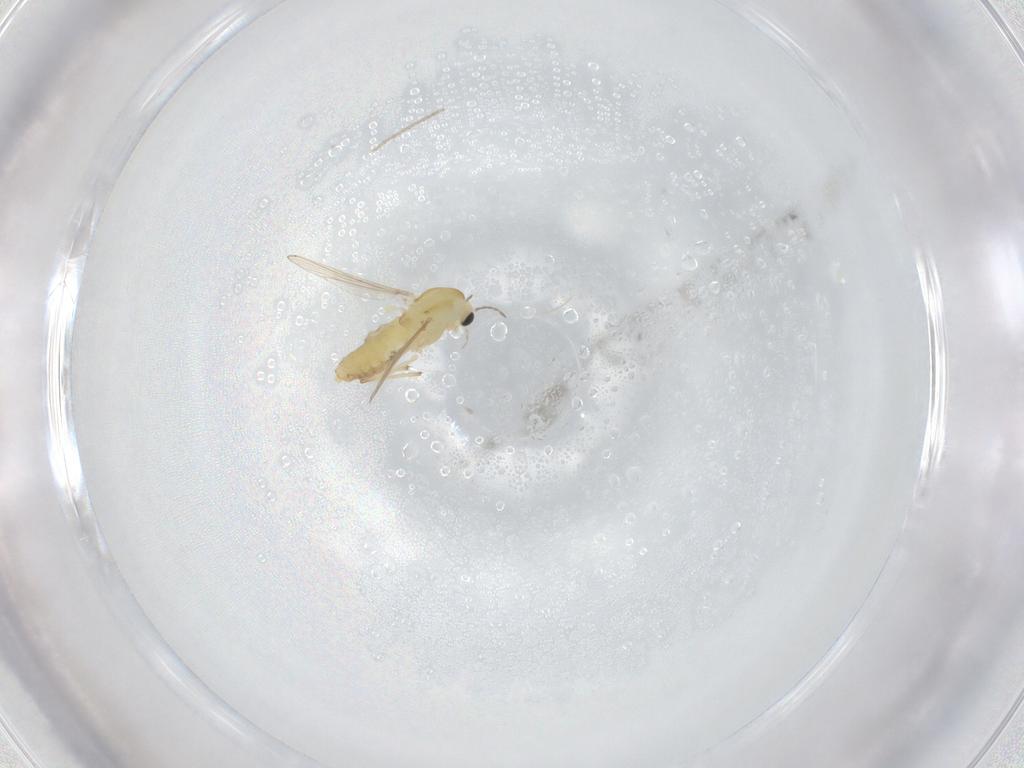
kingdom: Animalia
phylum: Arthropoda
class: Insecta
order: Diptera
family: Chironomidae
